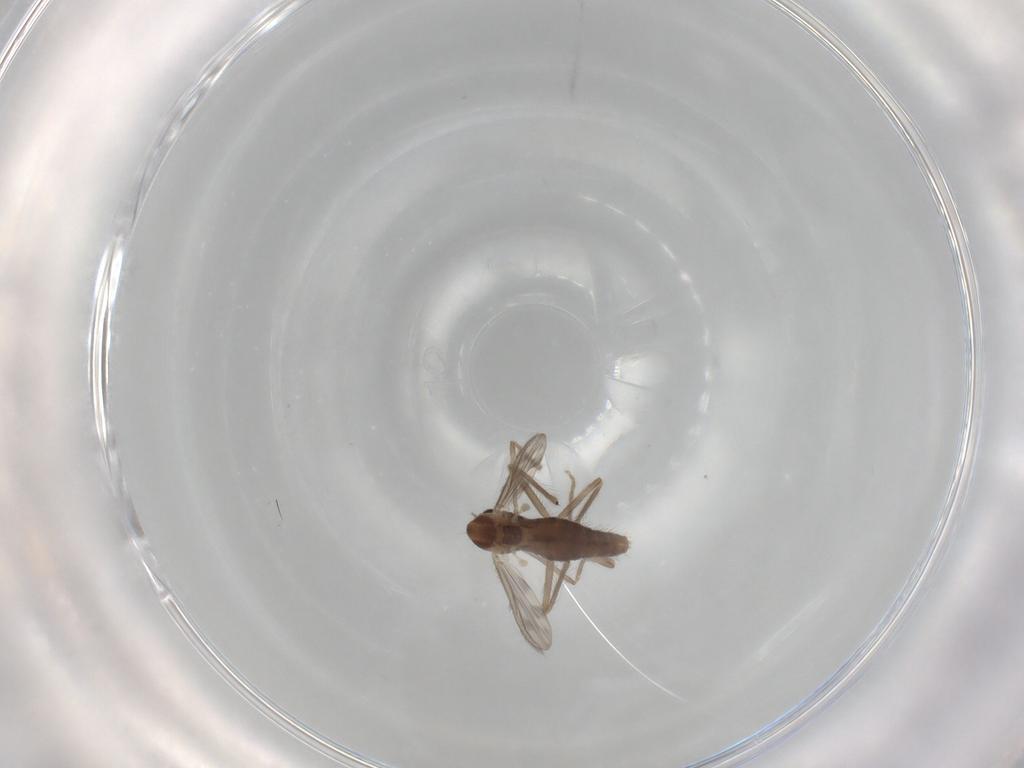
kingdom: Animalia
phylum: Arthropoda
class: Insecta
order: Diptera
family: Chironomidae
